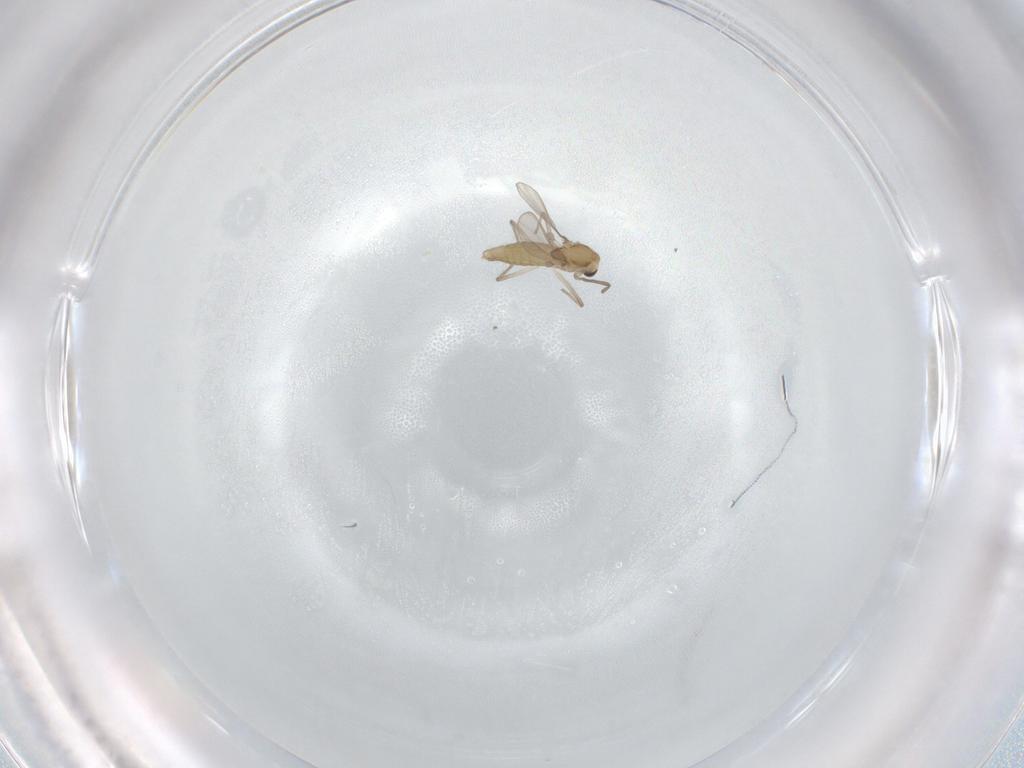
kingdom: Animalia
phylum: Arthropoda
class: Insecta
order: Diptera
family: Chironomidae
